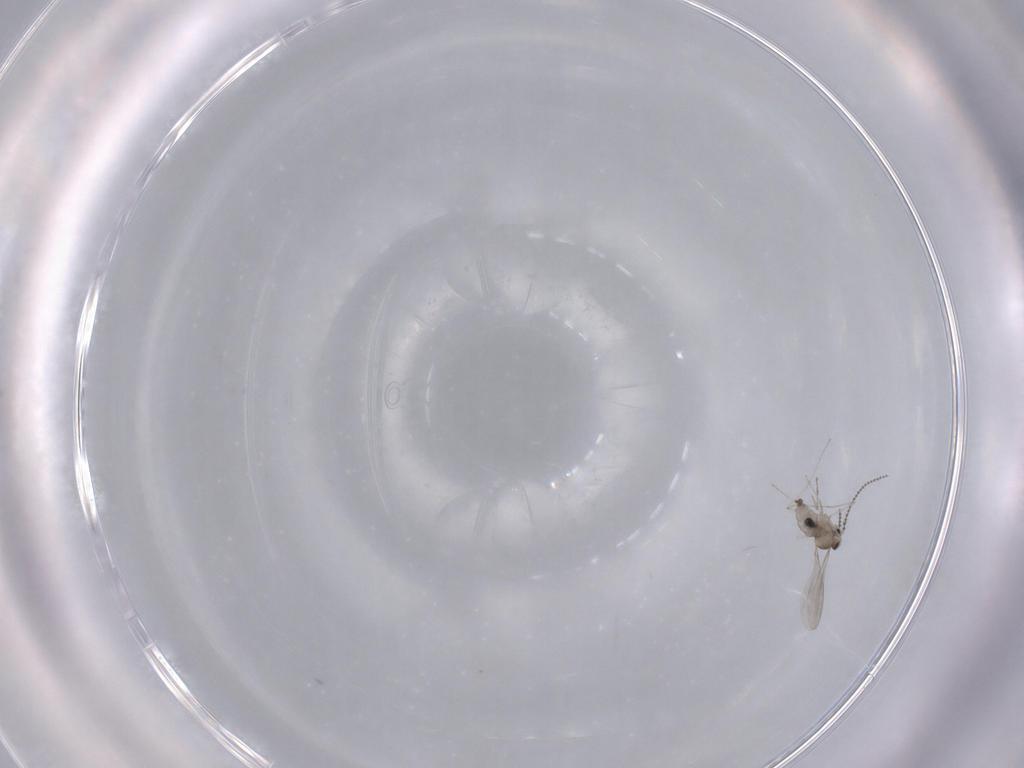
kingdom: Animalia
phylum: Arthropoda
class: Insecta
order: Diptera
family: Cecidomyiidae
